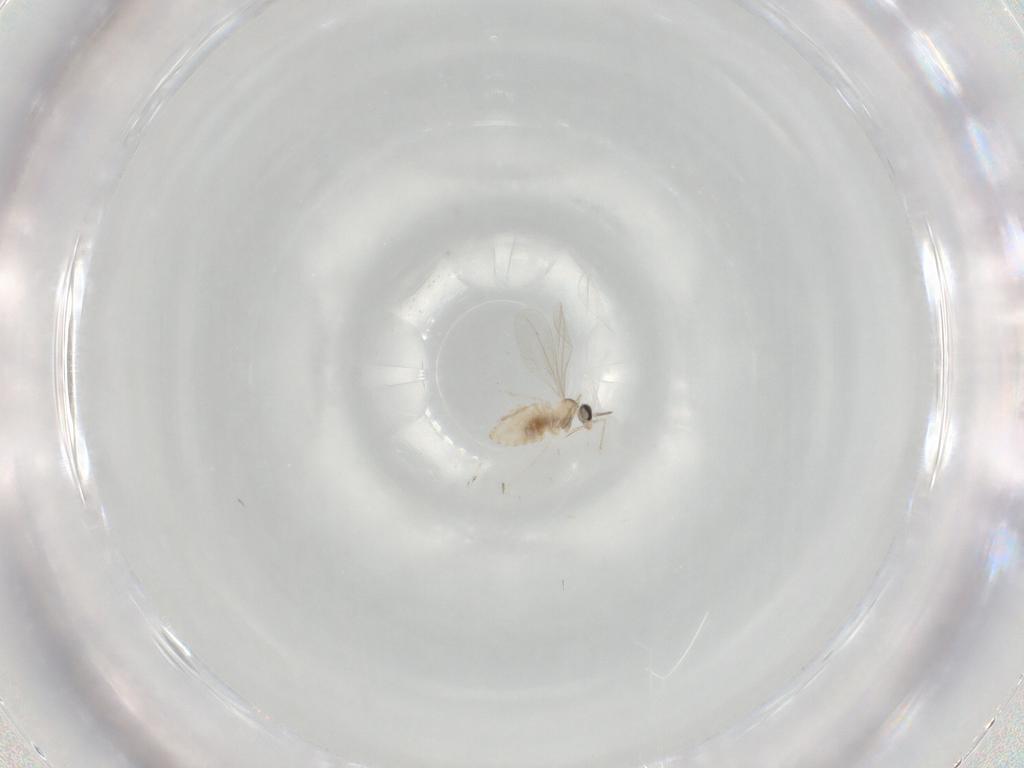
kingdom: Animalia
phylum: Arthropoda
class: Insecta
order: Diptera
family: Cecidomyiidae
